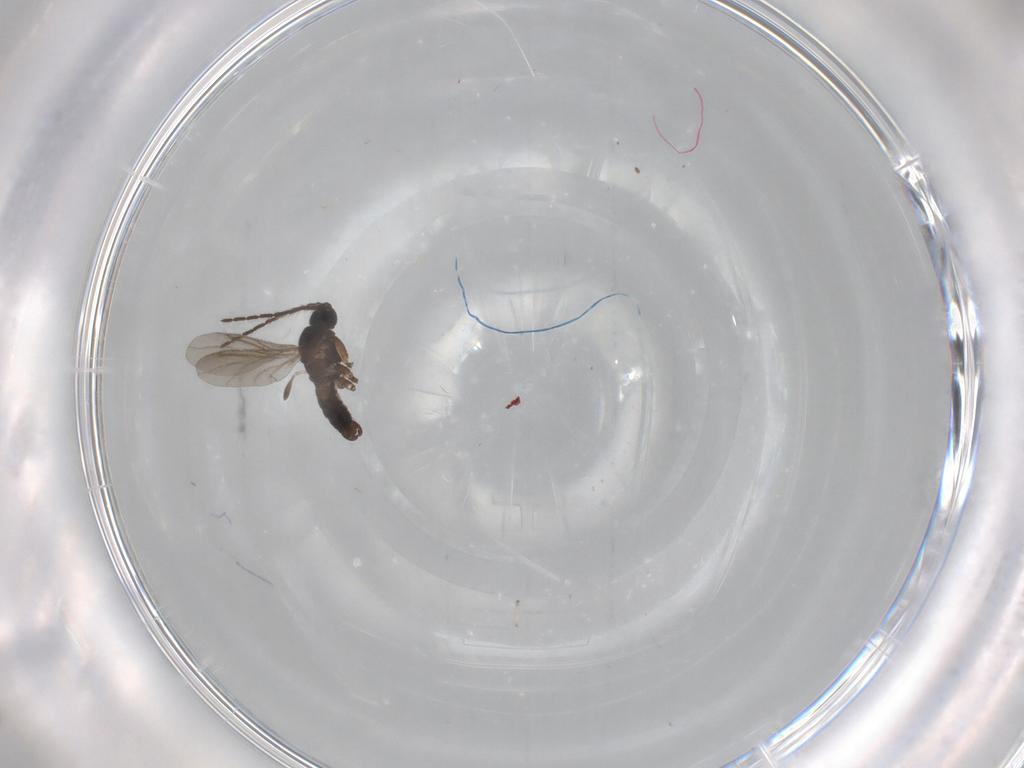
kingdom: Animalia
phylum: Arthropoda
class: Insecta
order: Diptera
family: Sciaridae
